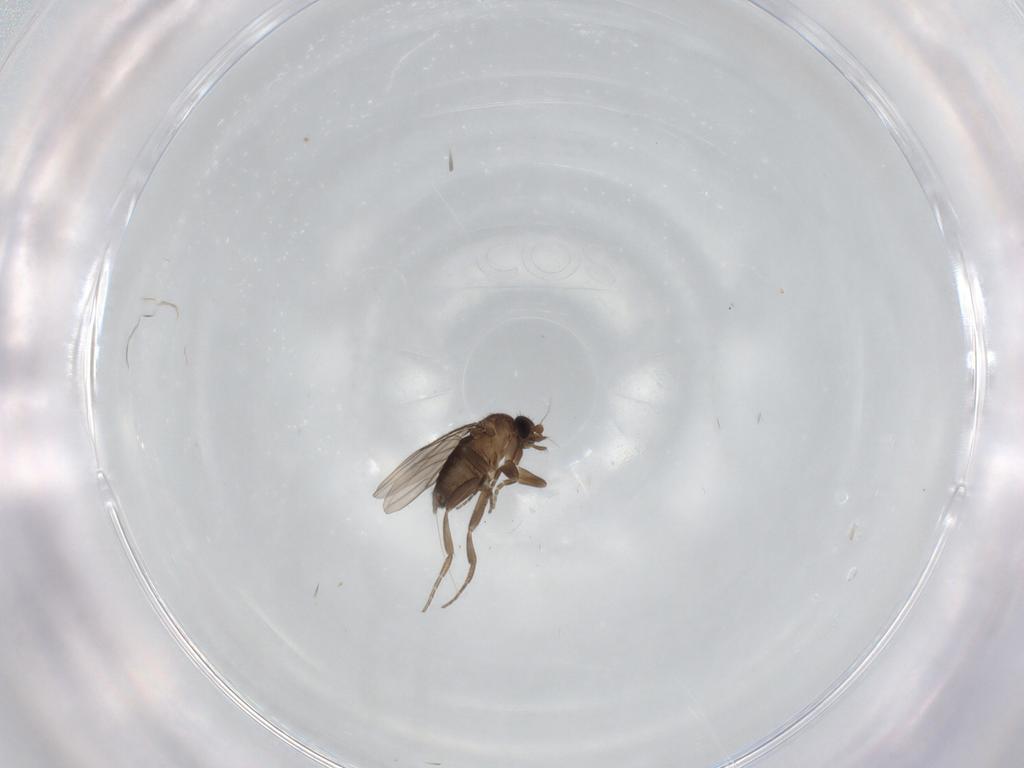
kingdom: Animalia
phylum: Arthropoda
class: Insecta
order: Diptera
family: Phoridae
